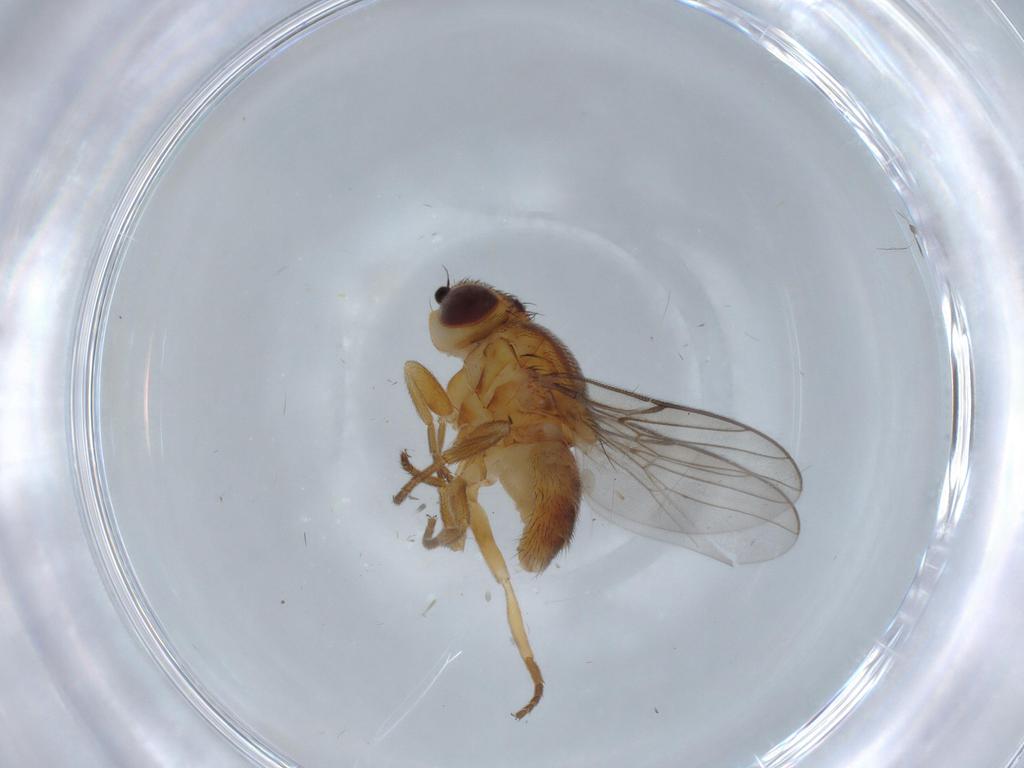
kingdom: Animalia
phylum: Arthropoda
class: Insecta
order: Diptera
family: Chloropidae
